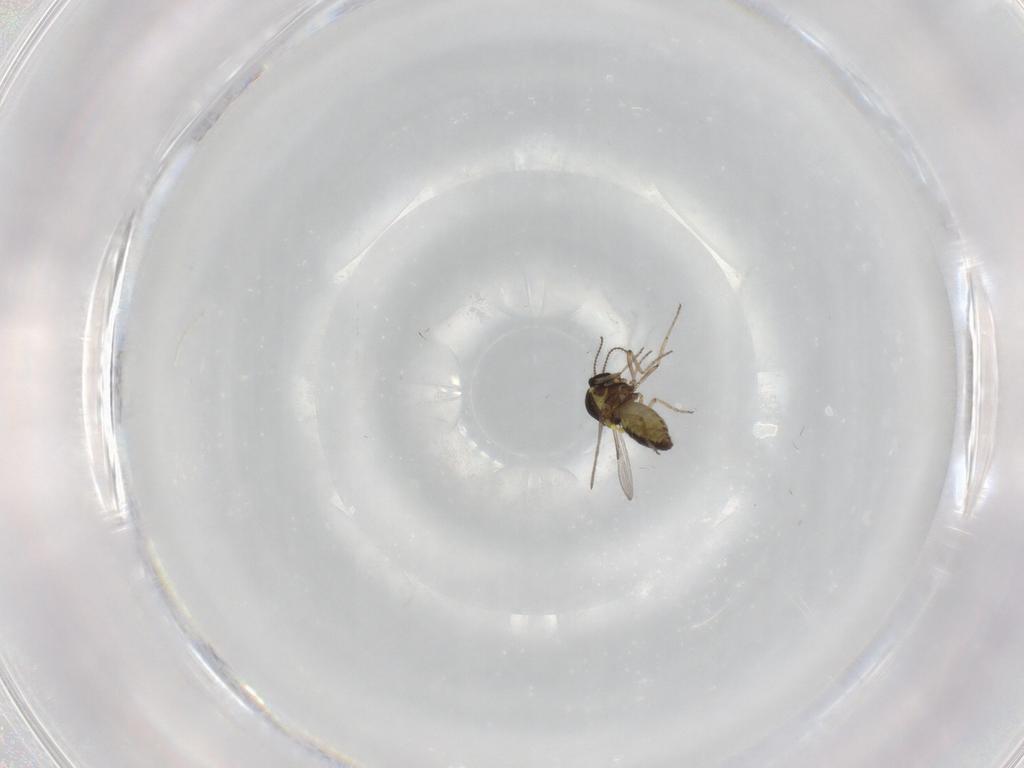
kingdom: Animalia
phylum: Arthropoda
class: Insecta
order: Diptera
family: Ceratopogonidae
